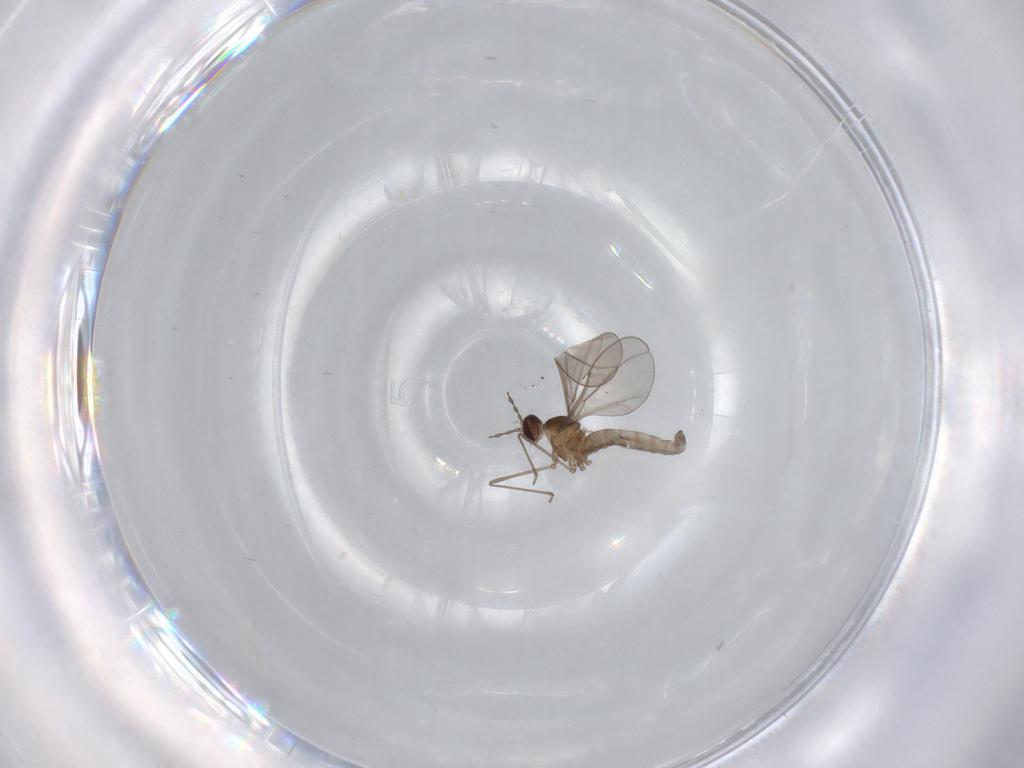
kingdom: Animalia
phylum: Arthropoda
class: Insecta
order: Diptera
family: Cecidomyiidae
